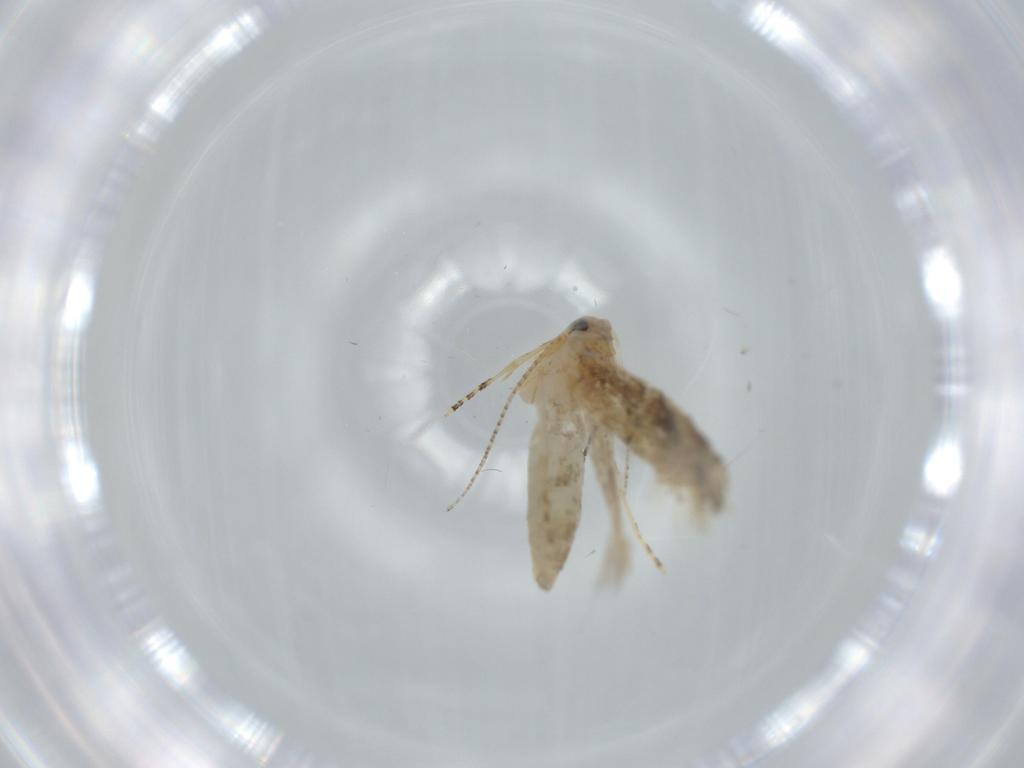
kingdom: Animalia
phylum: Arthropoda
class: Insecta
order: Lepidoptera
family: Bucculatricidae
